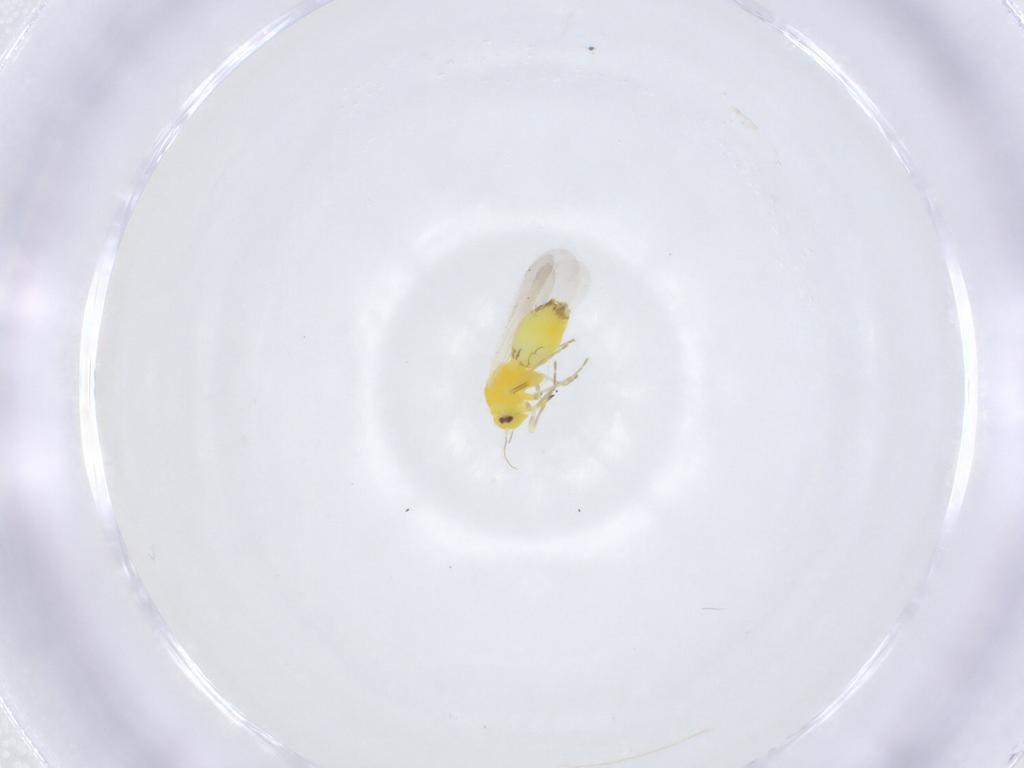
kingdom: Animalia
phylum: Arthropoda
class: Insecta
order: Hemiptera
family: Aleyrodidae
